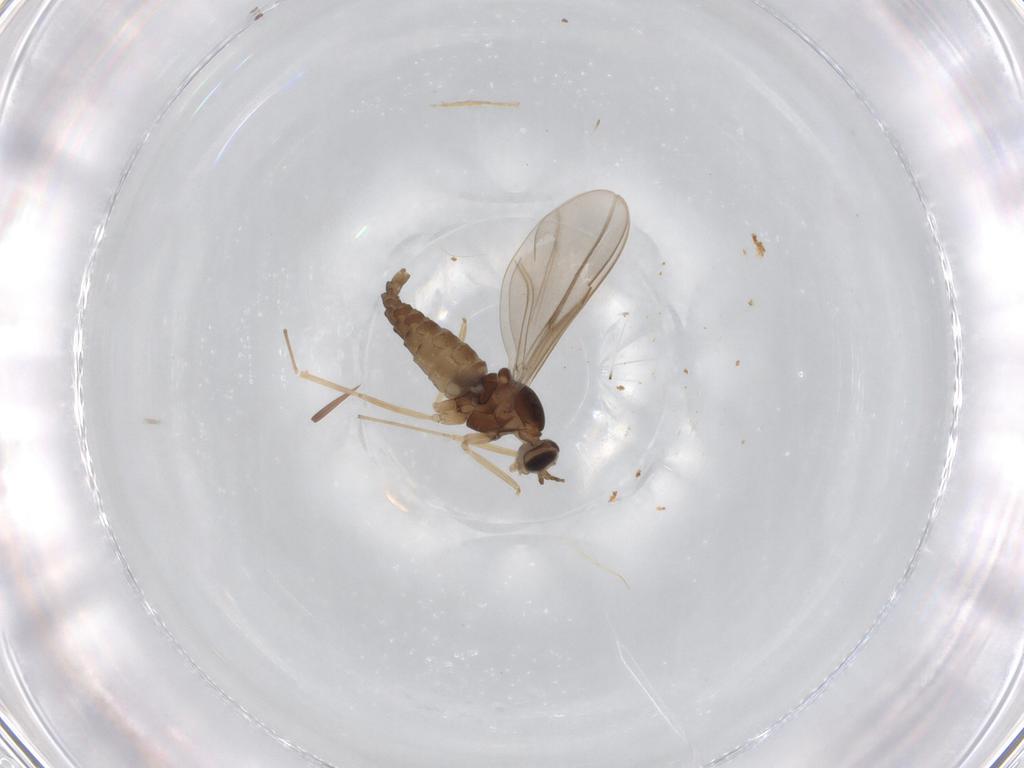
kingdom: Animalia
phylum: Arthropoda
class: Insecta
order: Diptera
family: Cecidomyiidae
